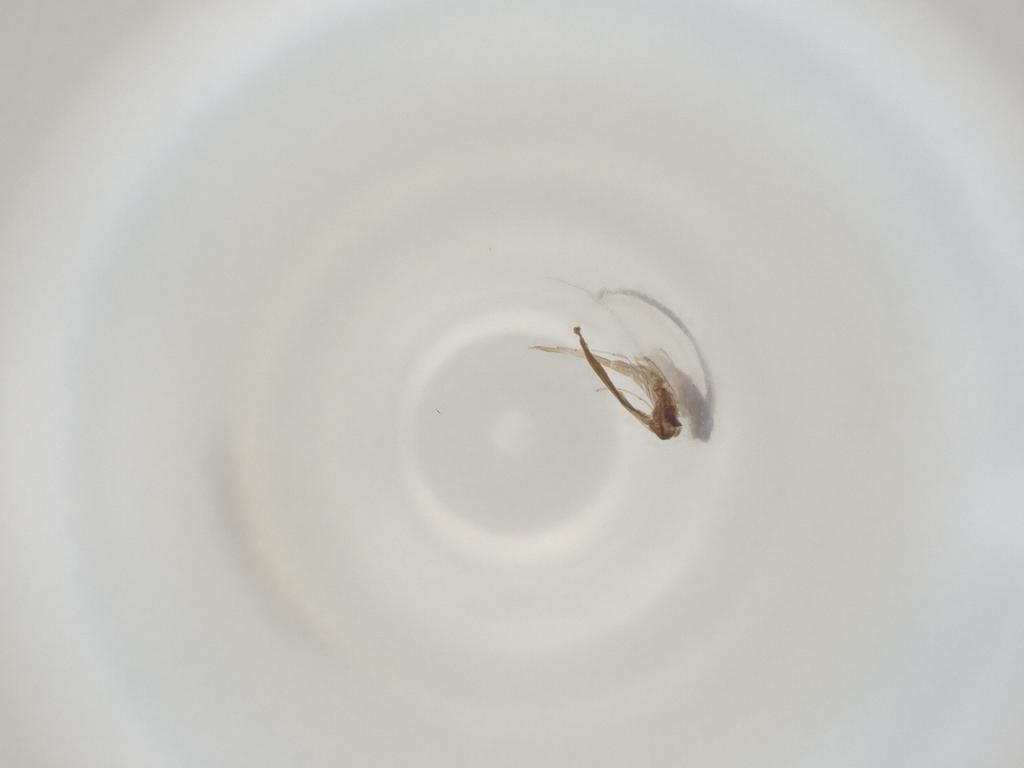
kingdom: Animalia
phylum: Arthropoda
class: Insecta
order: Diptera
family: Cecidomyiidae
